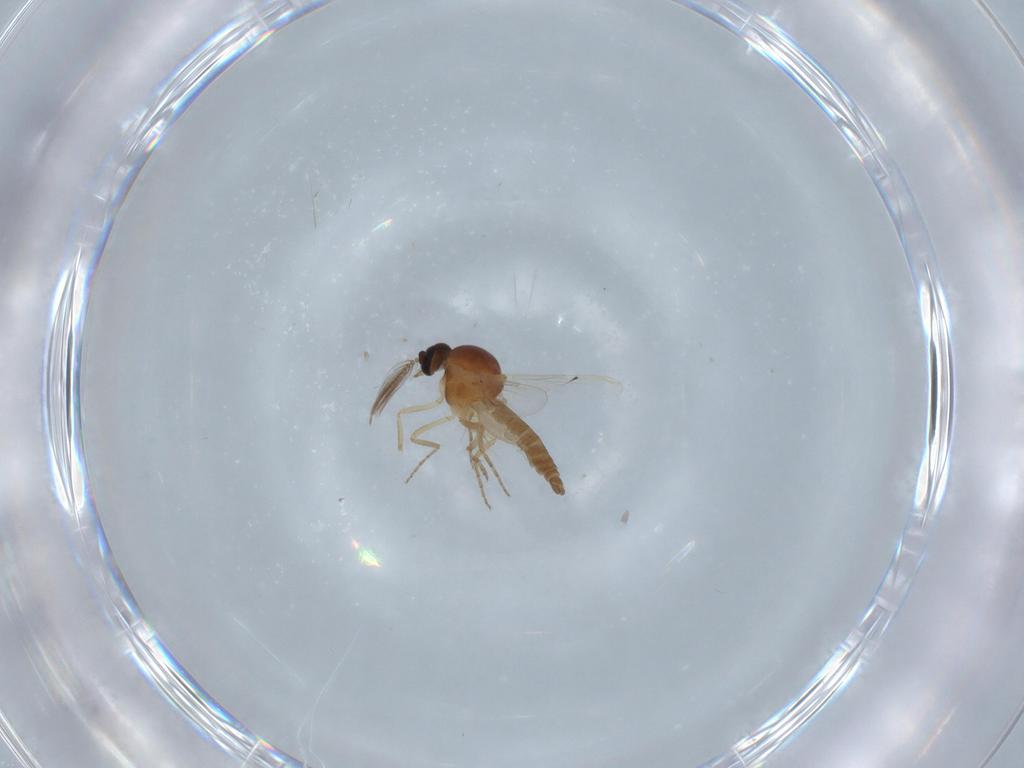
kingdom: Animalia
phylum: Arthropoda
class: Insecta
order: Diptera
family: Ceratopogonidae
